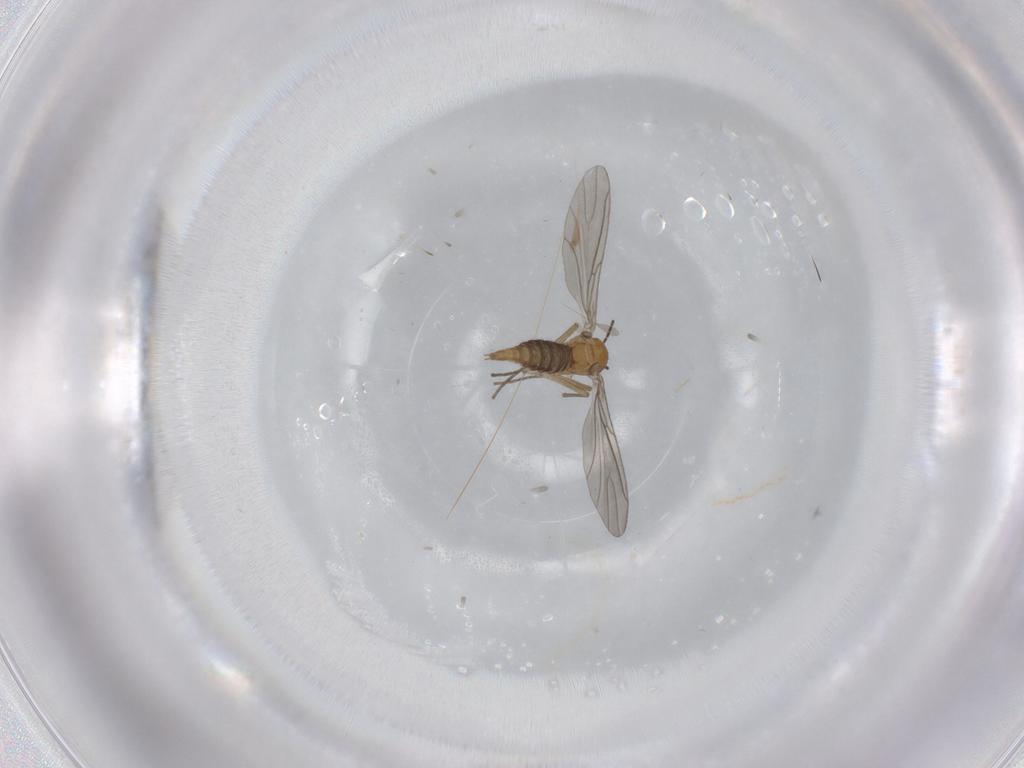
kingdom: Animalia
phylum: Arthropoda
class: Insecta
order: Diptera
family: Sciaridae
